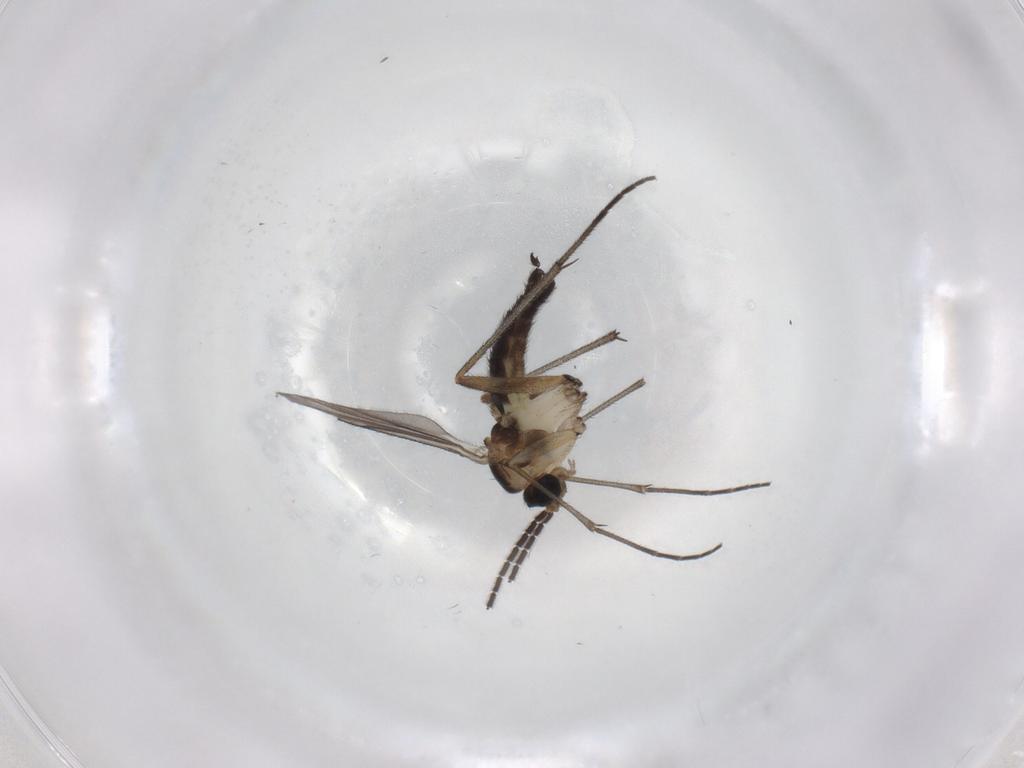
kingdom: Animalia
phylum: Arthropoda
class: Insecta
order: Diptera
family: Sciaridae
